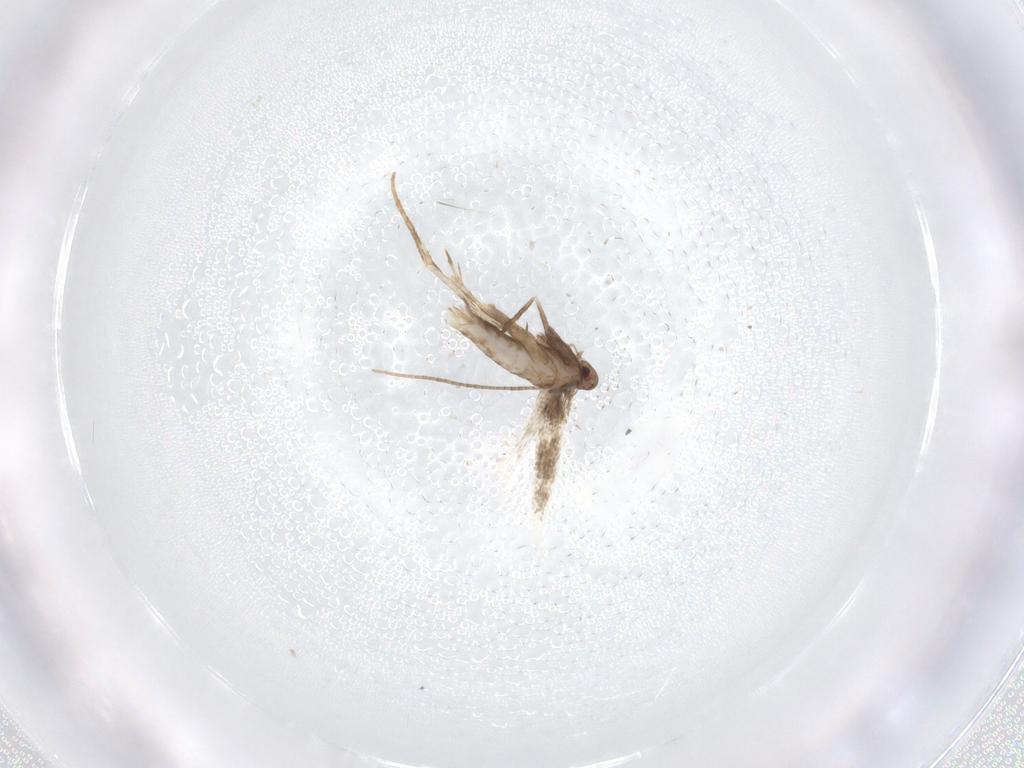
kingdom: Animalia
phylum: Arthropoda
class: Insecta
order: Lepidoptera
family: Gracillariidae
